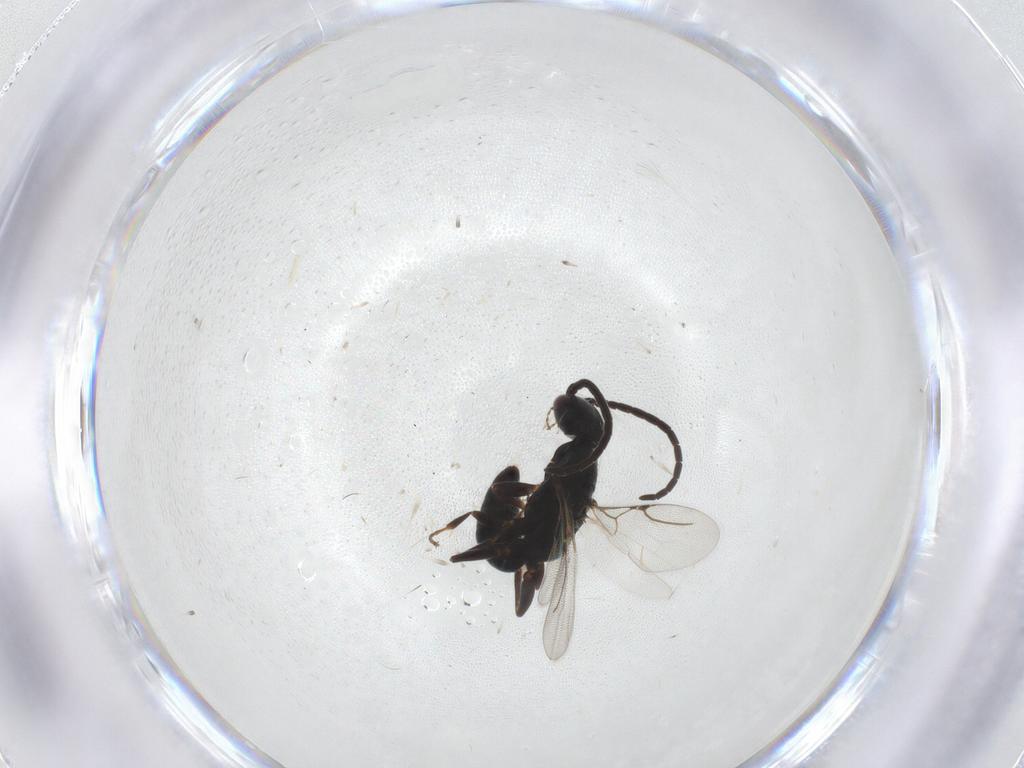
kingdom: Animalia
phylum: Arthropoda
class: Insecta
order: Hymenoptera
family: Bethylidae
